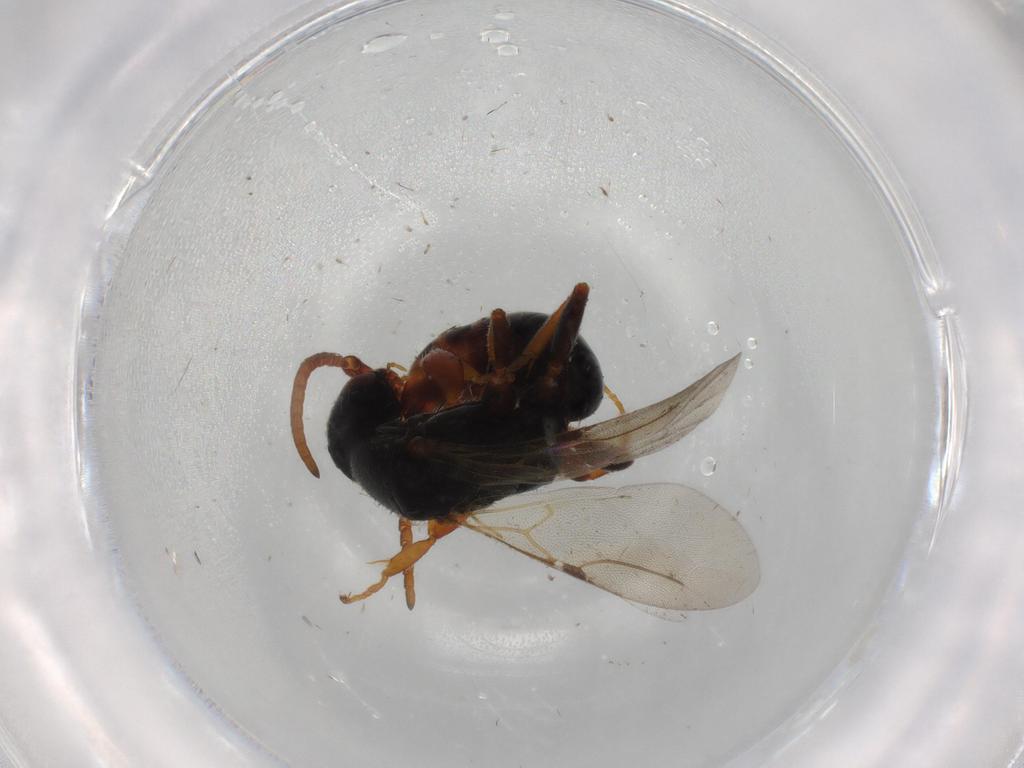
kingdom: Animalia
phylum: Arthropoda
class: Insecta
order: Hymenoptera
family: Bethylidae
